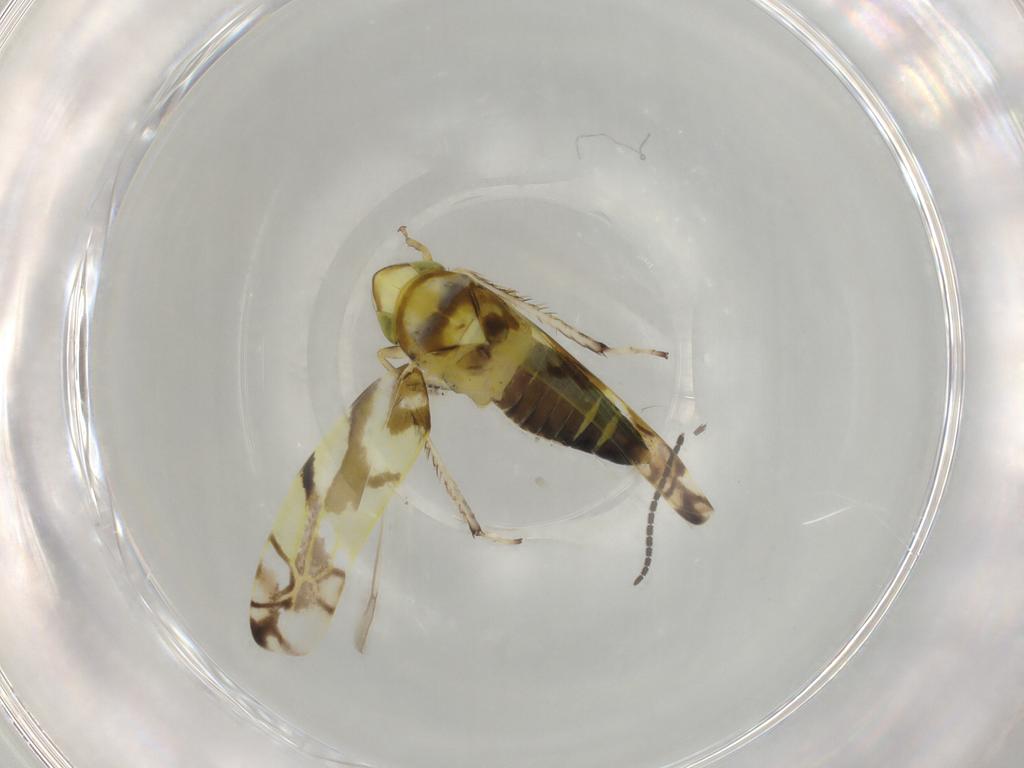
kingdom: Animalia
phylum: Arthropoda
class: Insecta
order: Hemiptera
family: Cicadellidae
